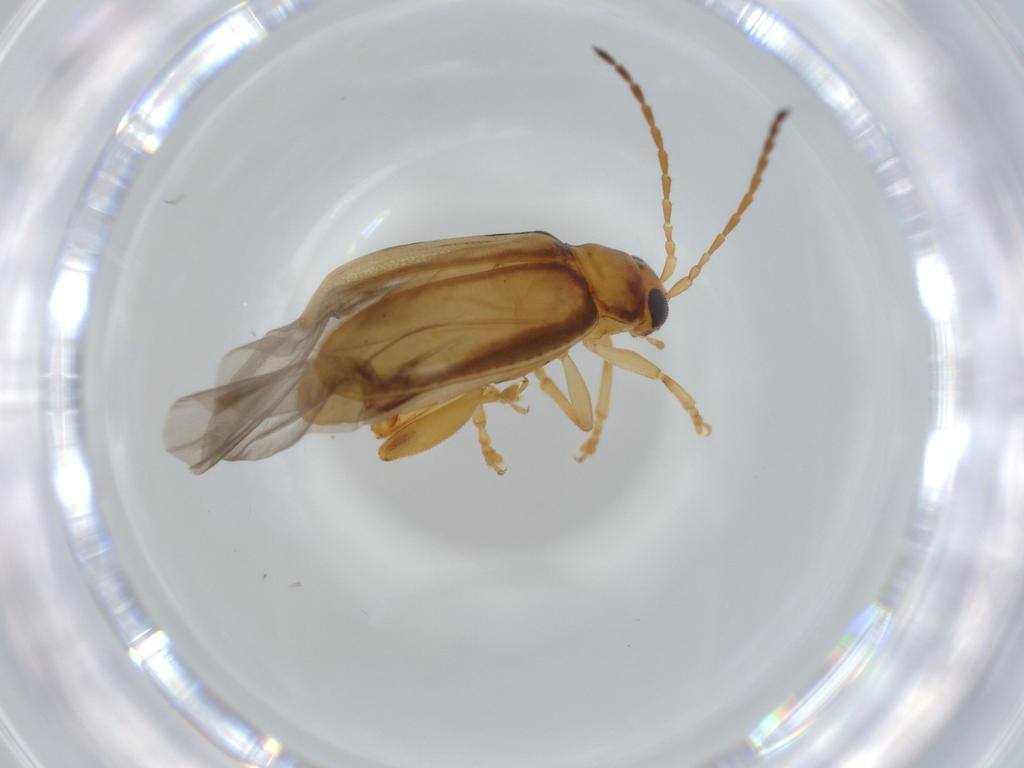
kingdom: Animalia
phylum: Arthropoda
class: Insecta
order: Coleoptera
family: Chrysomelidae
